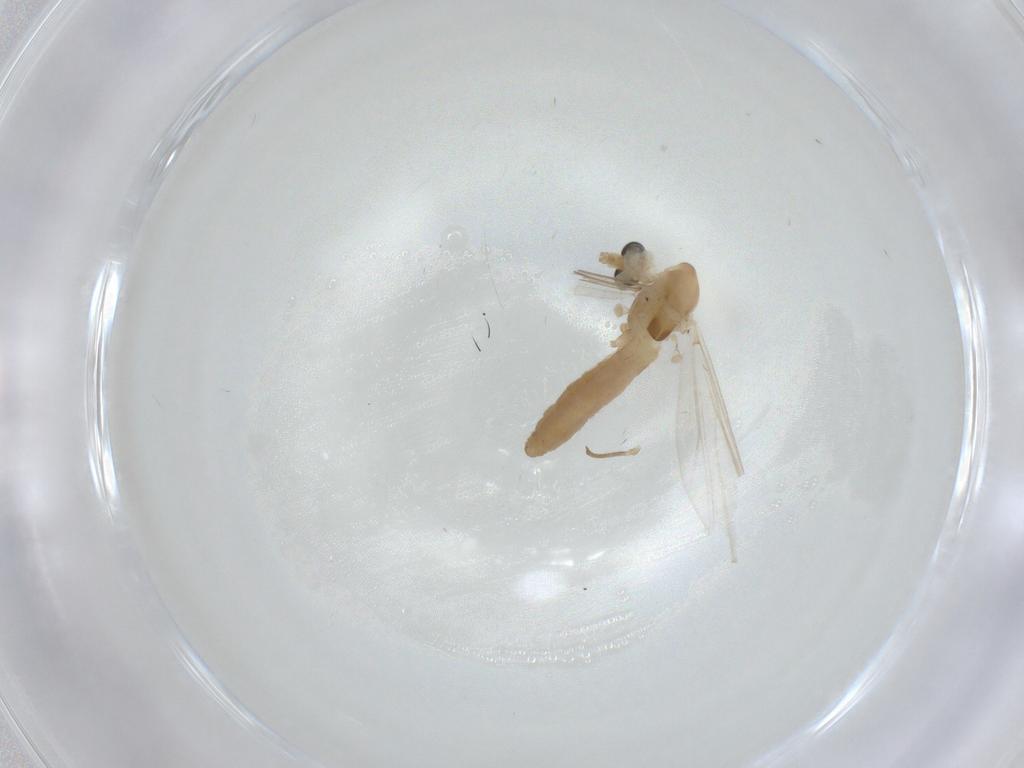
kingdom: Animalia
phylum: Arthropoda
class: Insecta
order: Diptera
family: Chironomidae
